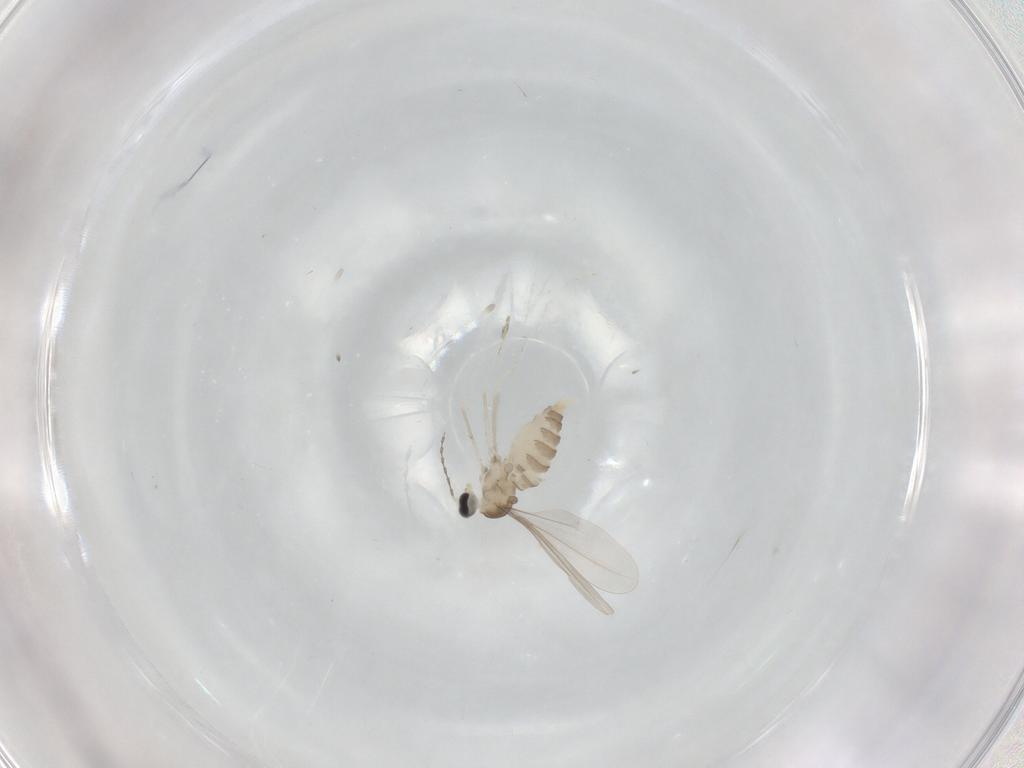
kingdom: Animalia
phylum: Arthropoda
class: Insecta
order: Diptera
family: Cecidomyiidae
